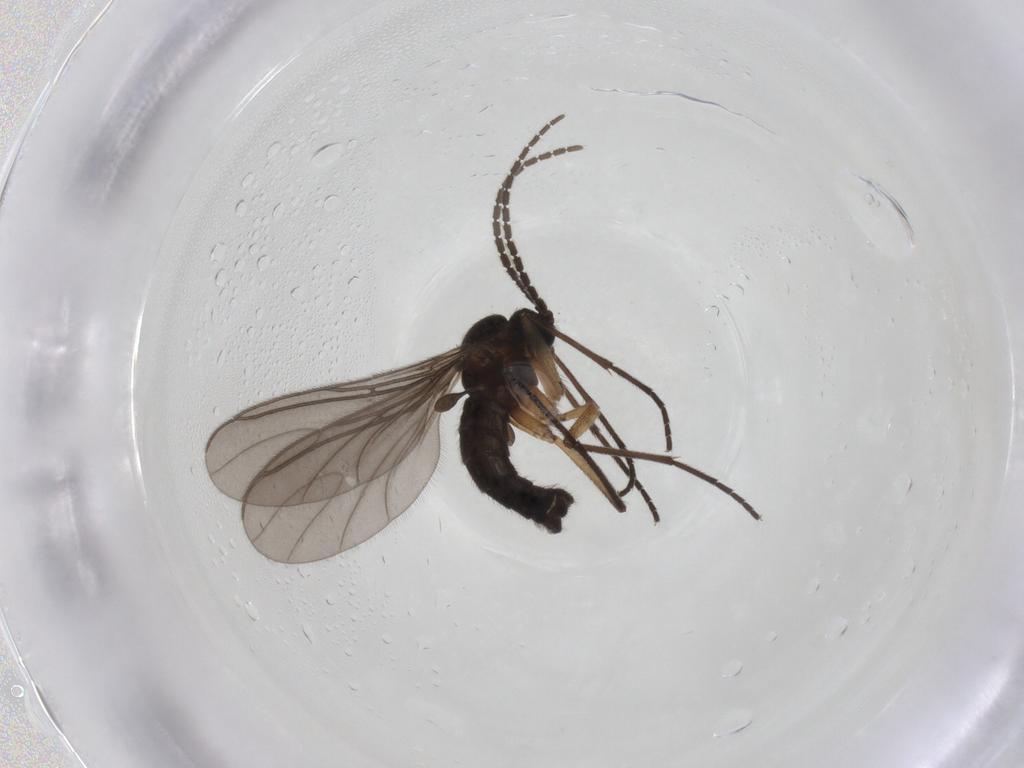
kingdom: Animalia
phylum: Arthropoda
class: Insecta
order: Diptera
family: Sciaridae
